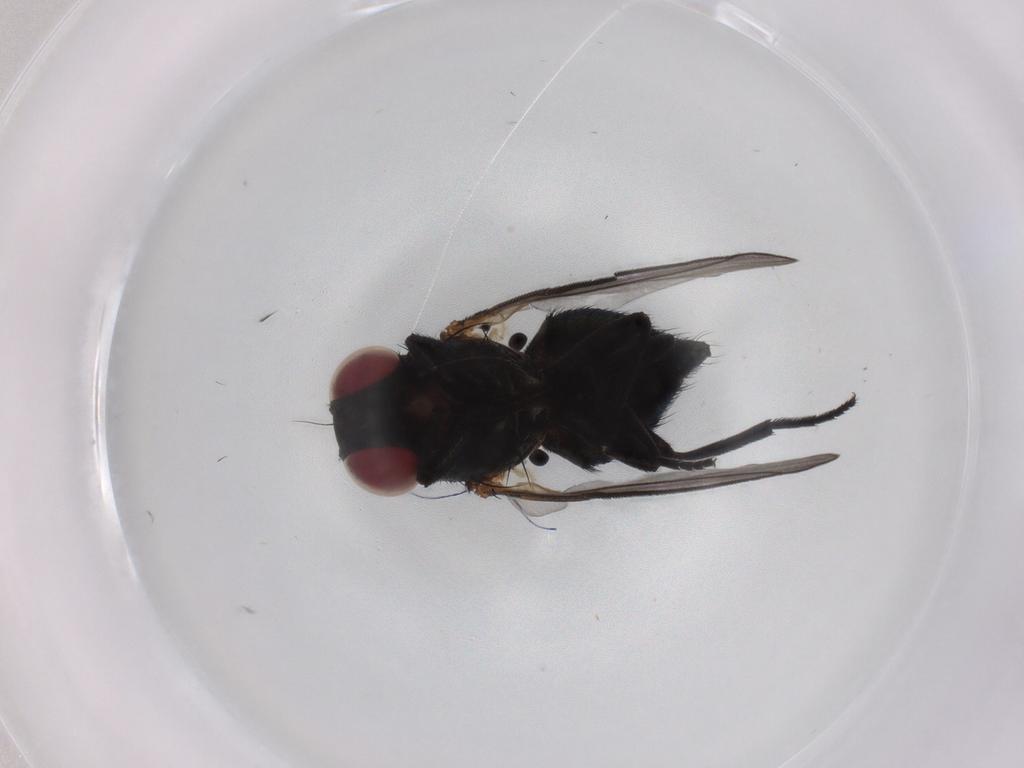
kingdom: Animalia
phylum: Arthropoda
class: Insecta
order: Diptera
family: Agromyzidae
